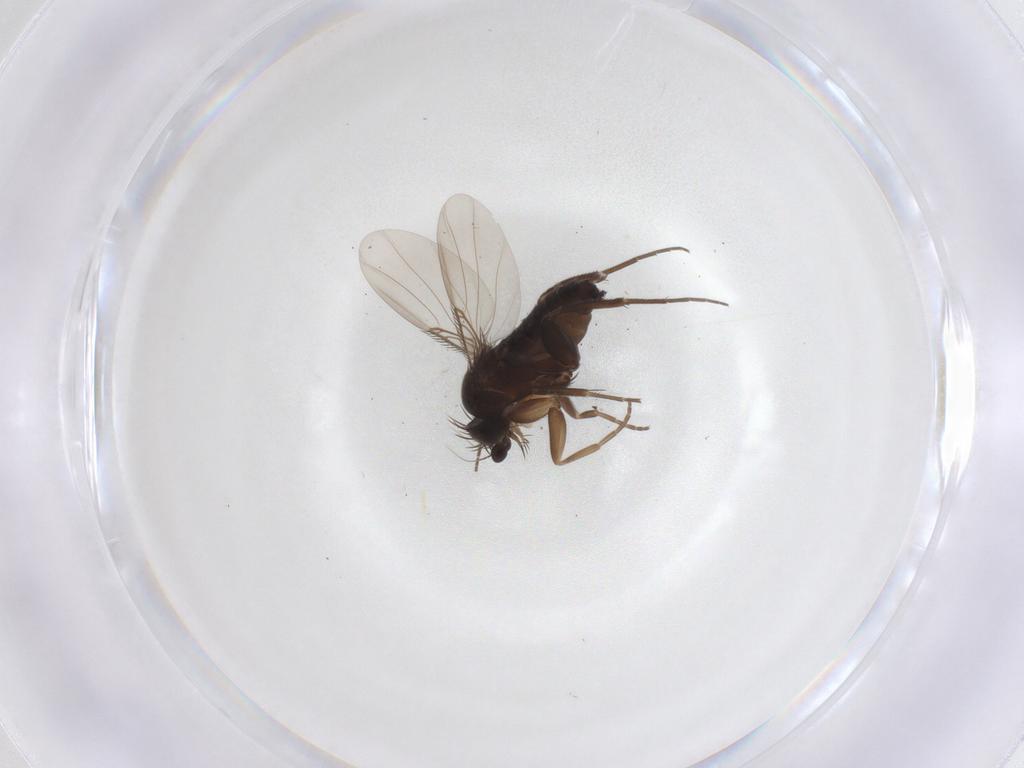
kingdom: Animalia
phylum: Arthropoda
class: Insecta
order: Diptera
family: Phoridae
